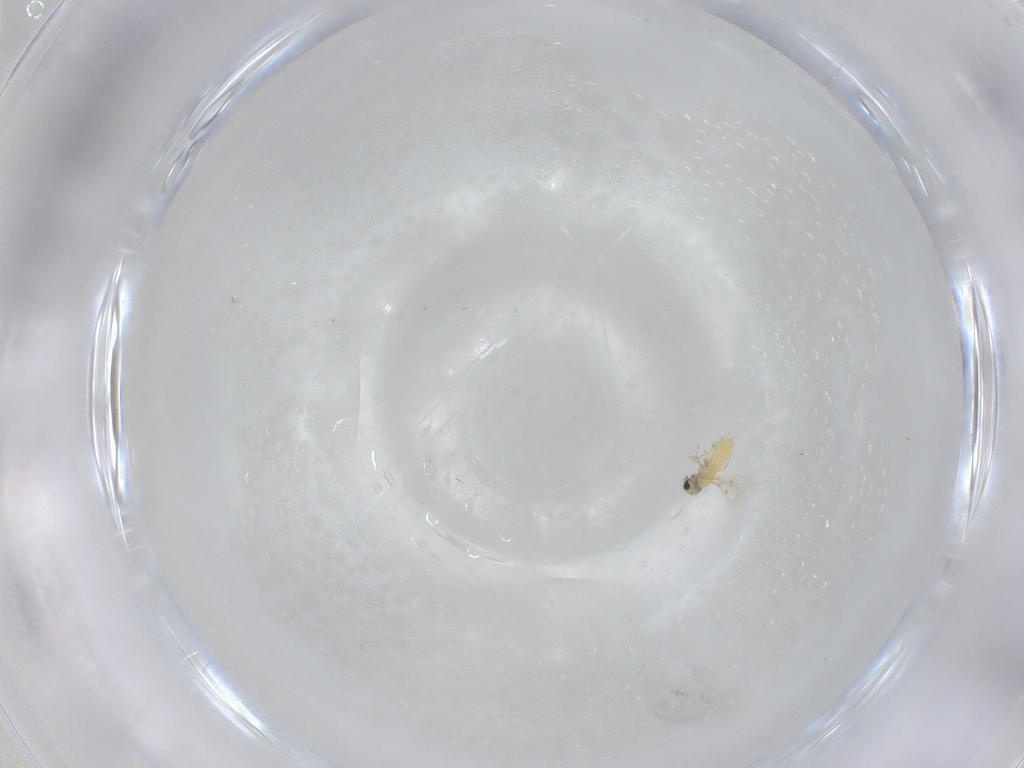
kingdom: Animalia
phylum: Arthropoda
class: Insecta
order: Hymenoptera
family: Trichogrammatidae
